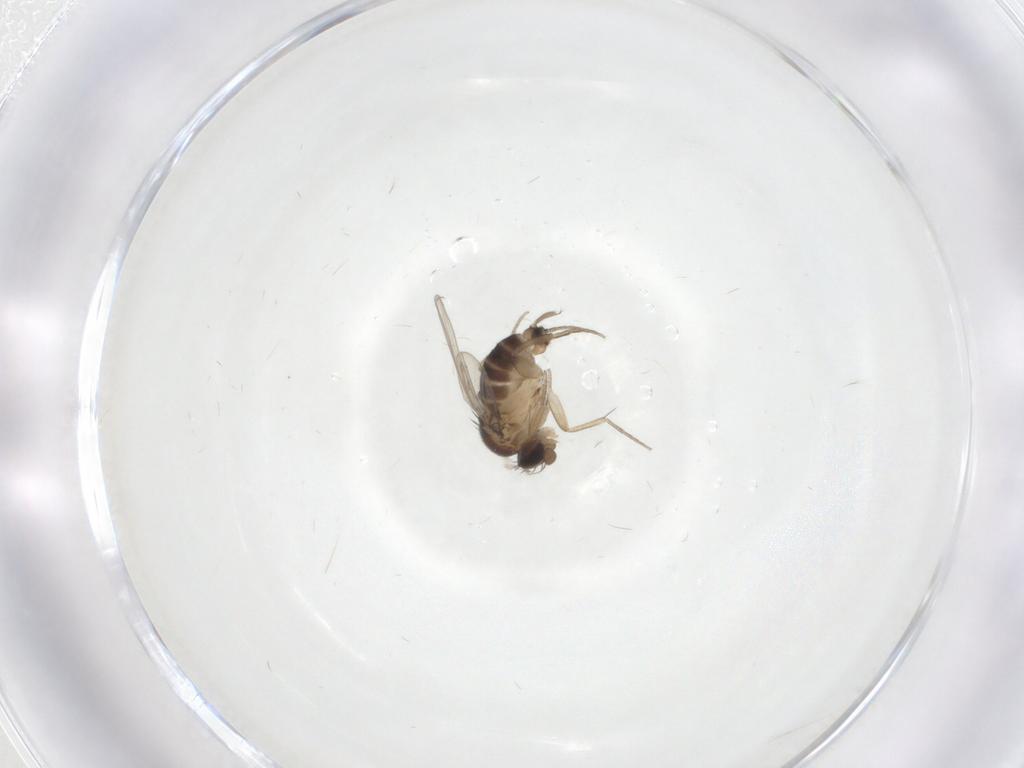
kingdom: Animalia
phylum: Arthropoda
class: Insecta
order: Diptera
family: Phoridae
